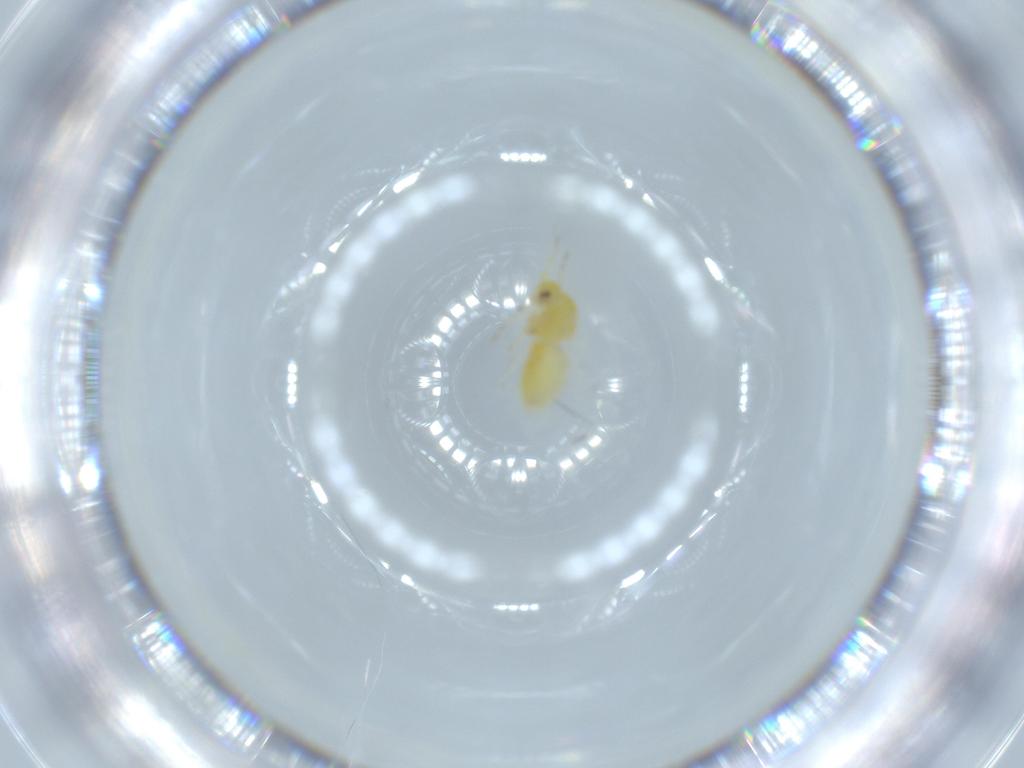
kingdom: Animalia
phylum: Arthropoda
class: Insecta
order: Hemiptera
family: Aleyrodidae
